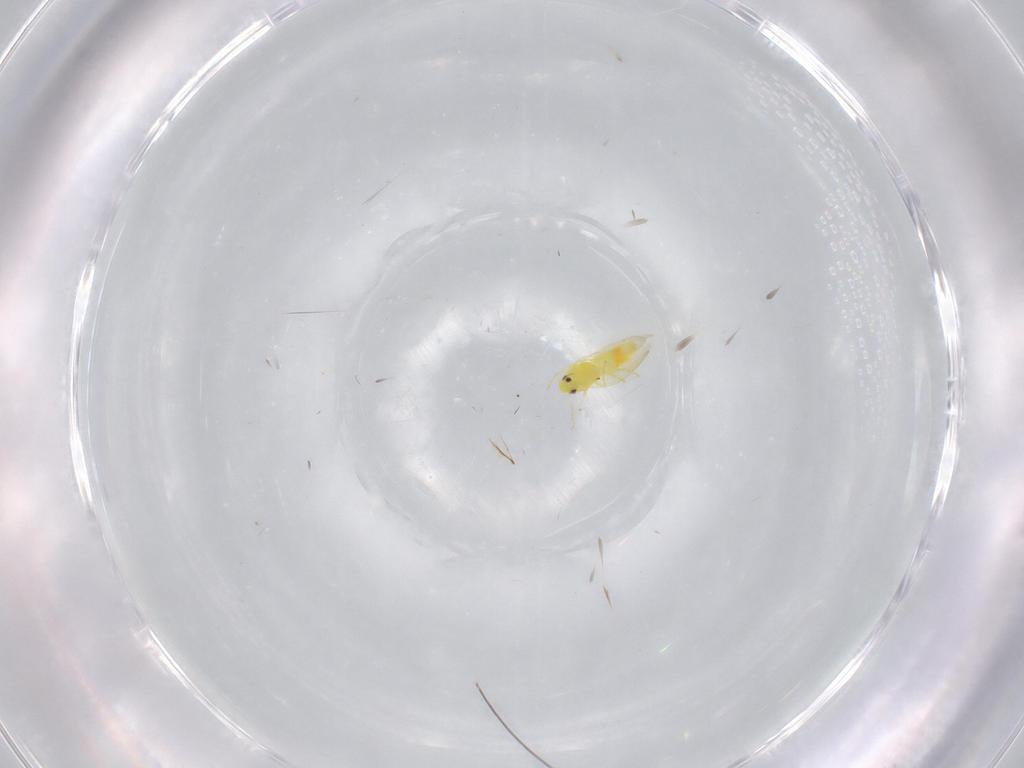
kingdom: Animalia
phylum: Arthropoda
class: Insecta
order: Hemiptera
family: Aleyrodidae
